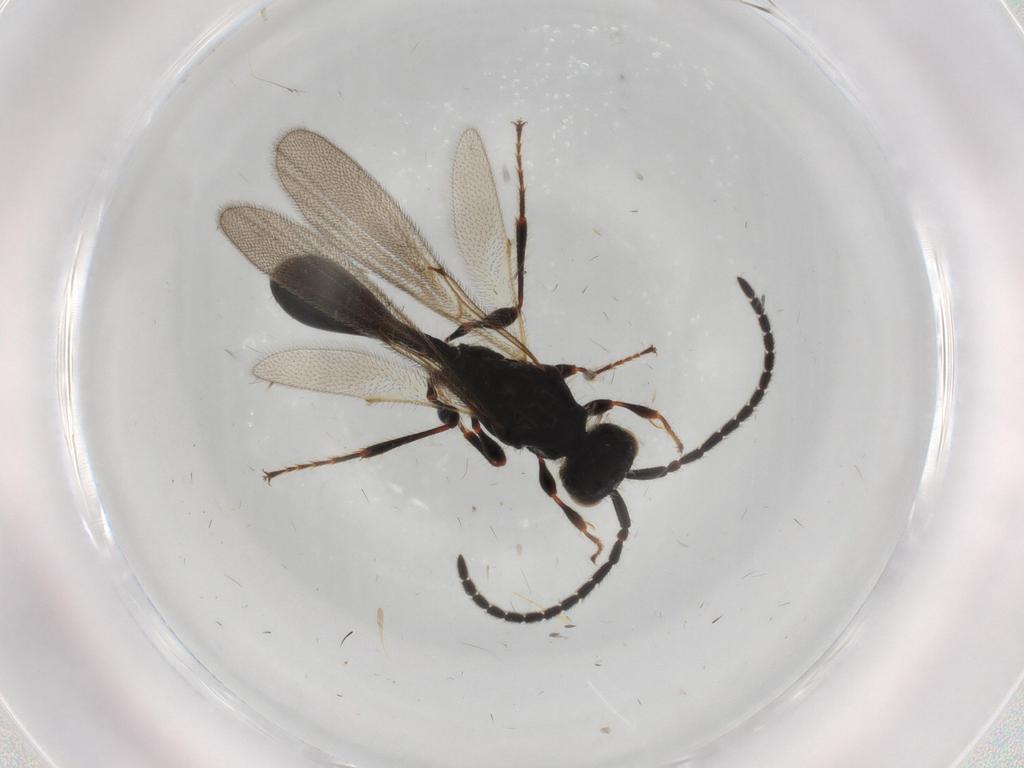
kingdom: Animalia
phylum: Arthropoda
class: Insecta
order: Hymenoptera
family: Diapriidae
